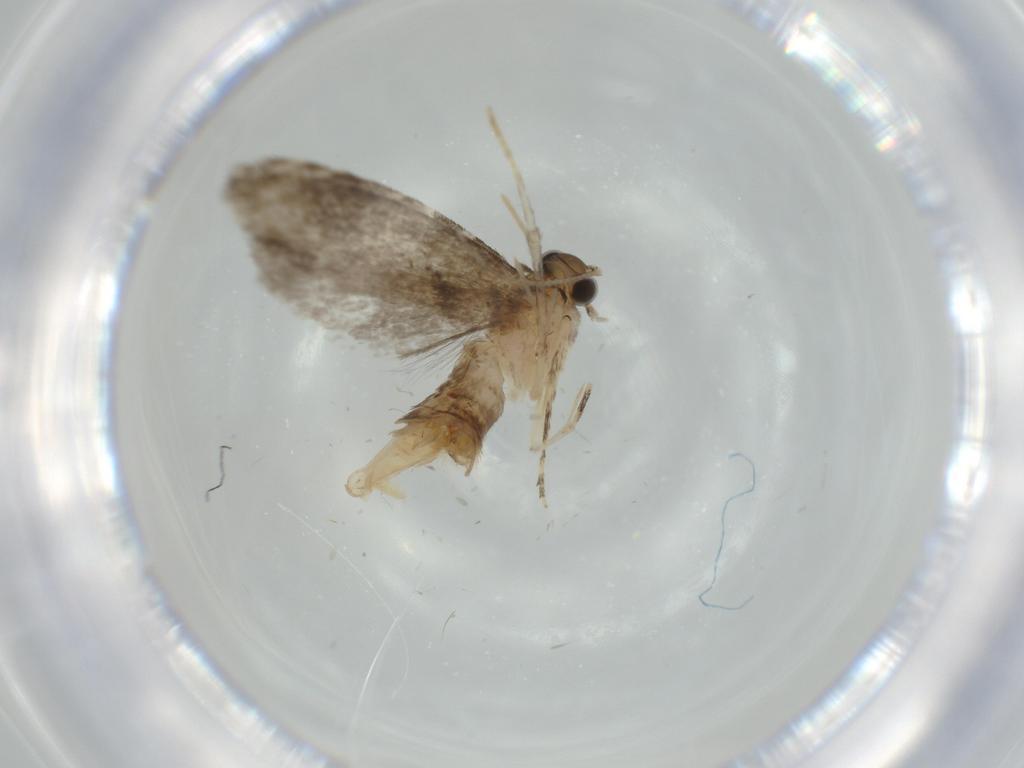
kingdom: Animalia
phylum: Arthropoda
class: Insecta
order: Lepidoptera
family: Tineidae
